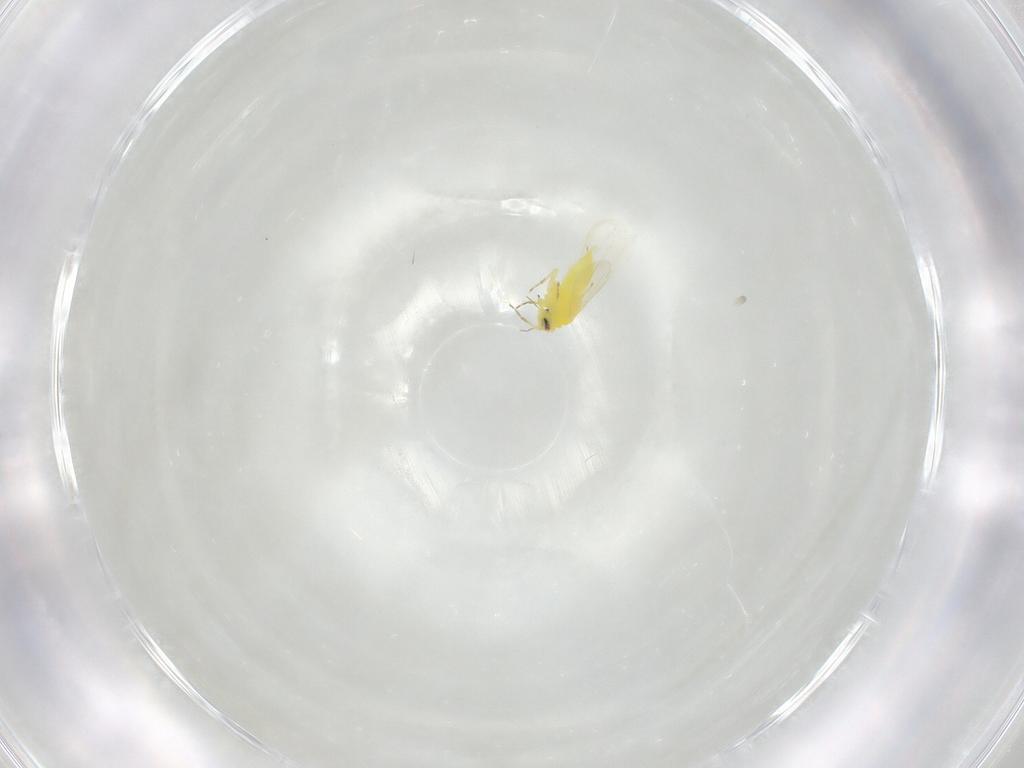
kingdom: Animalia
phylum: Arthropoda
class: Insecta
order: Hemiptera
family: Aleyrodidae
